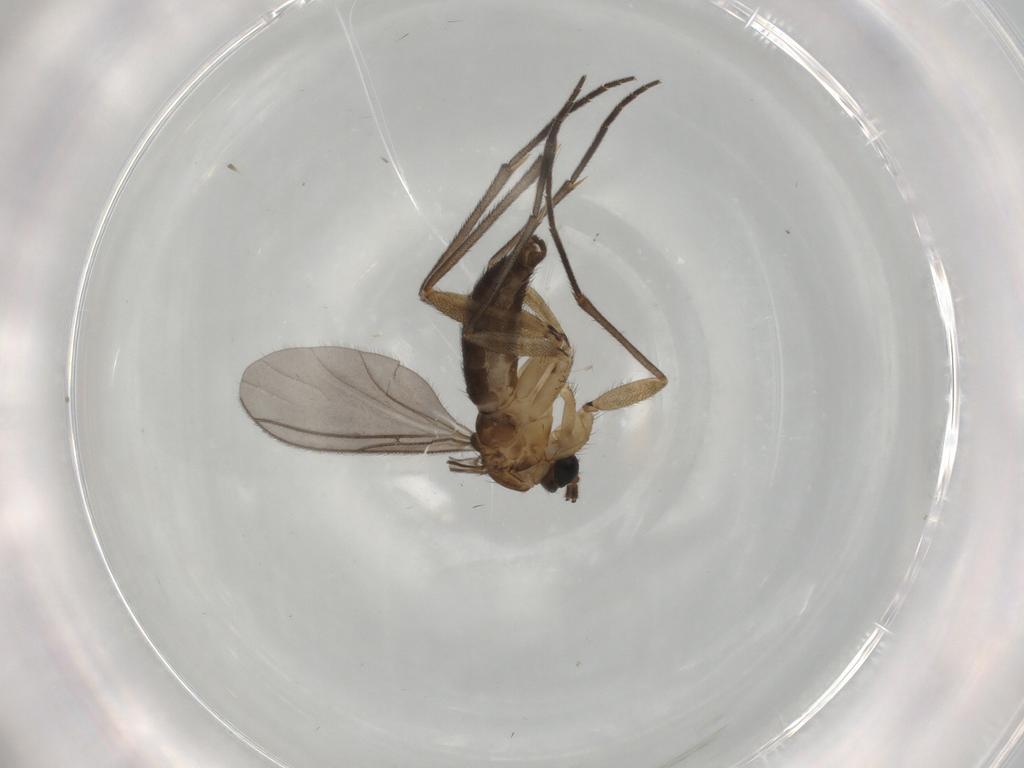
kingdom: Animalia
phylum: Arthropoda
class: Insecta
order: Diptera
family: Sciaridae
